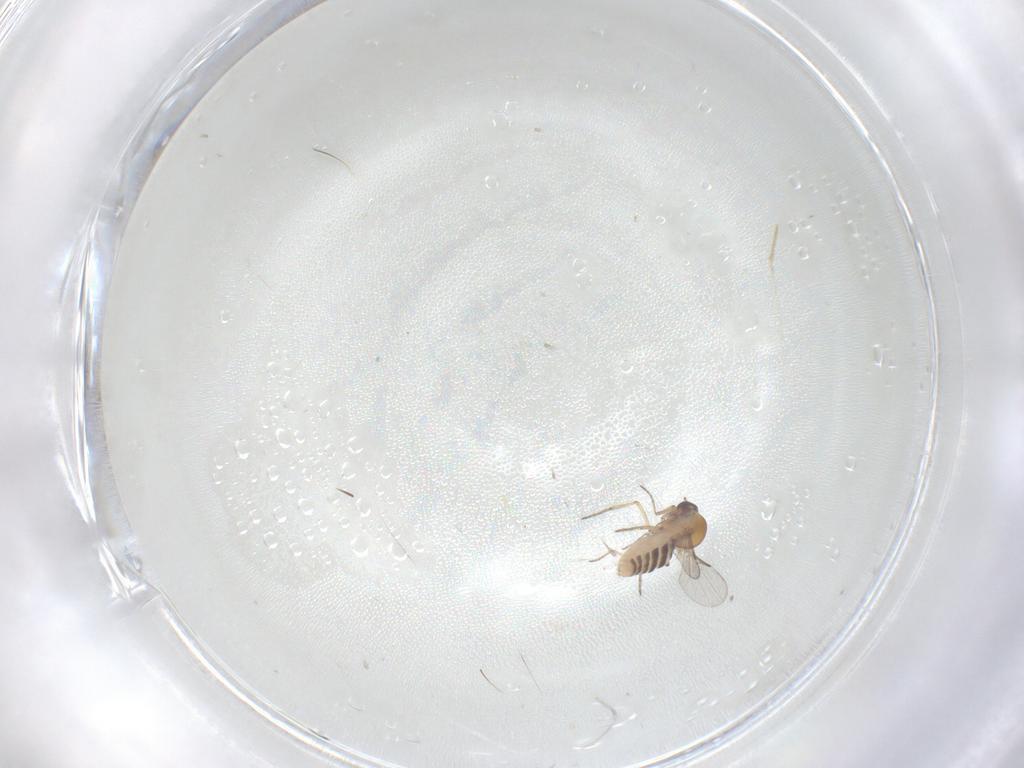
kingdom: Animalia
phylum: Arthropoda
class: Insecta
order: Diptera
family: Cecidomyiidae
